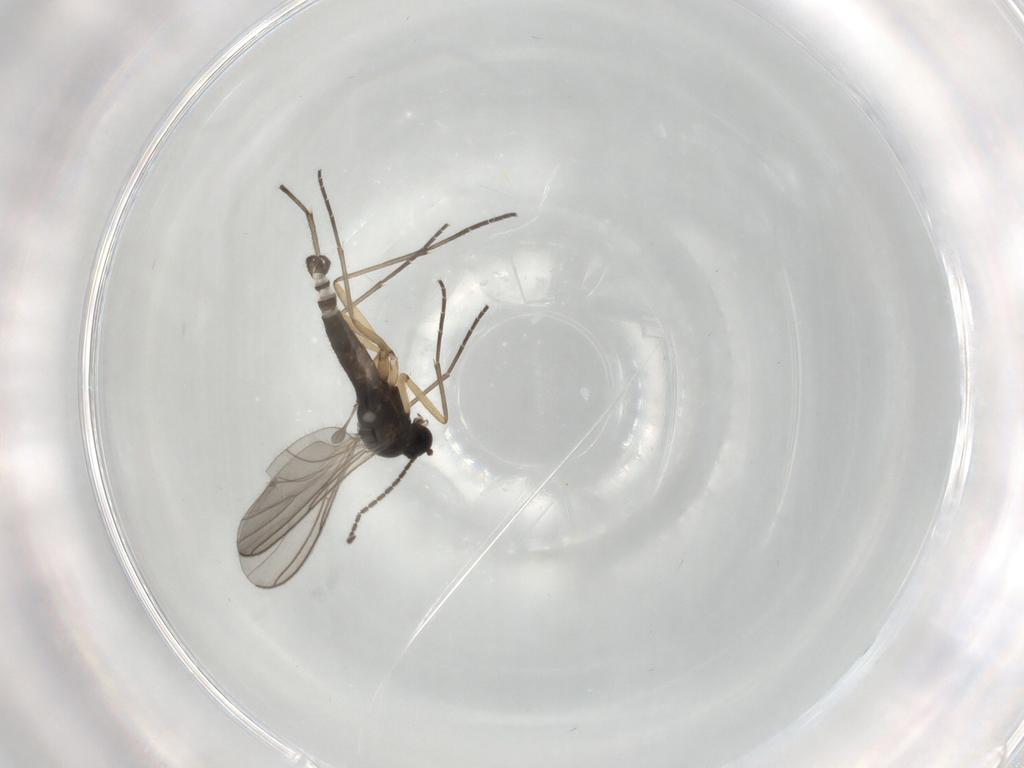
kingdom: Animalia
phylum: Arthropoda
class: Insecta
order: Diptera
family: Sciaridae
